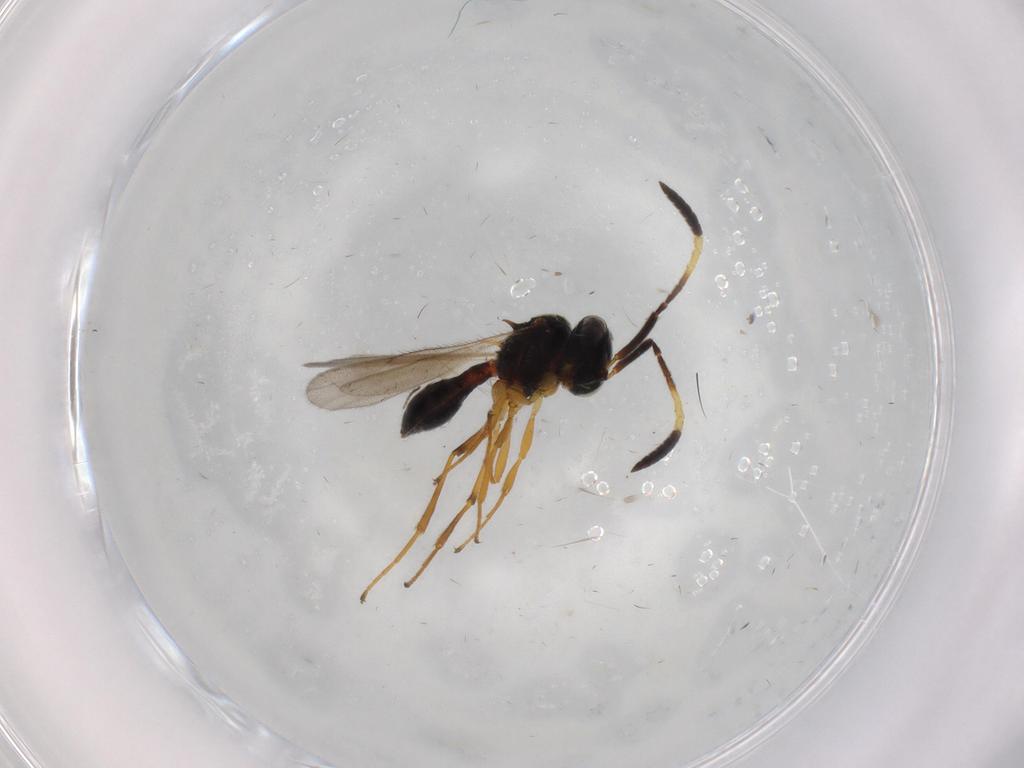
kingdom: Animalia
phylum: Arthropoda
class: Insecta
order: Hymenoptera
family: Scelionidae
